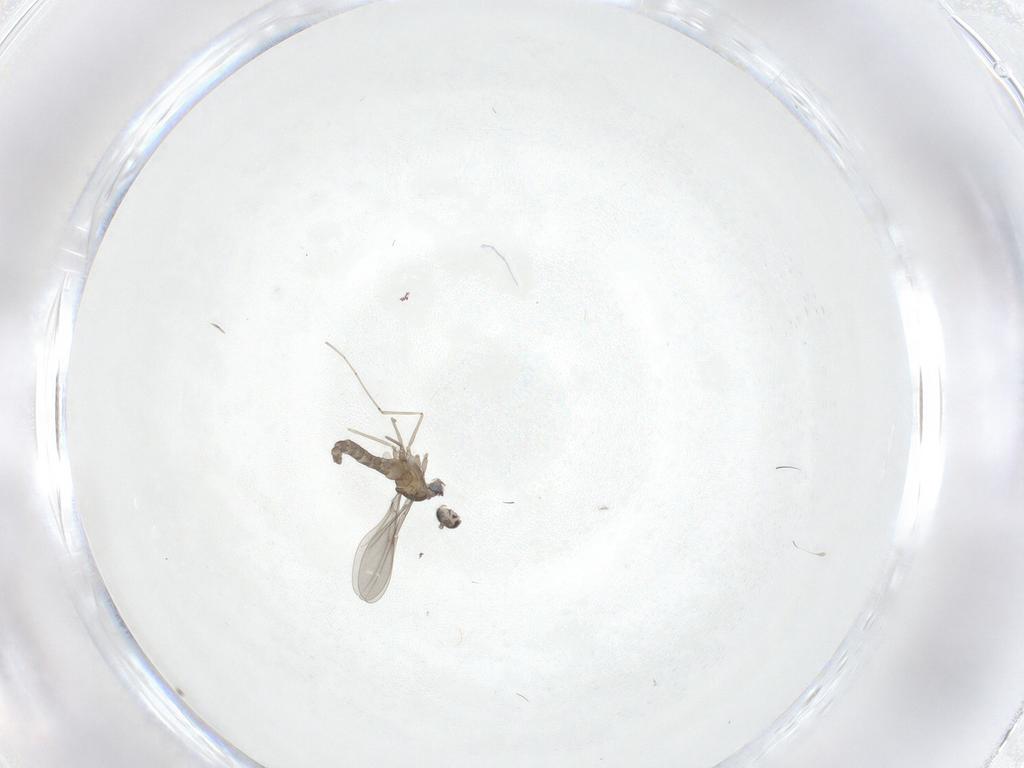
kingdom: Animalia
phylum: Arthropoda
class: Insecta
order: Diptera
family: Cecidomyiidae
